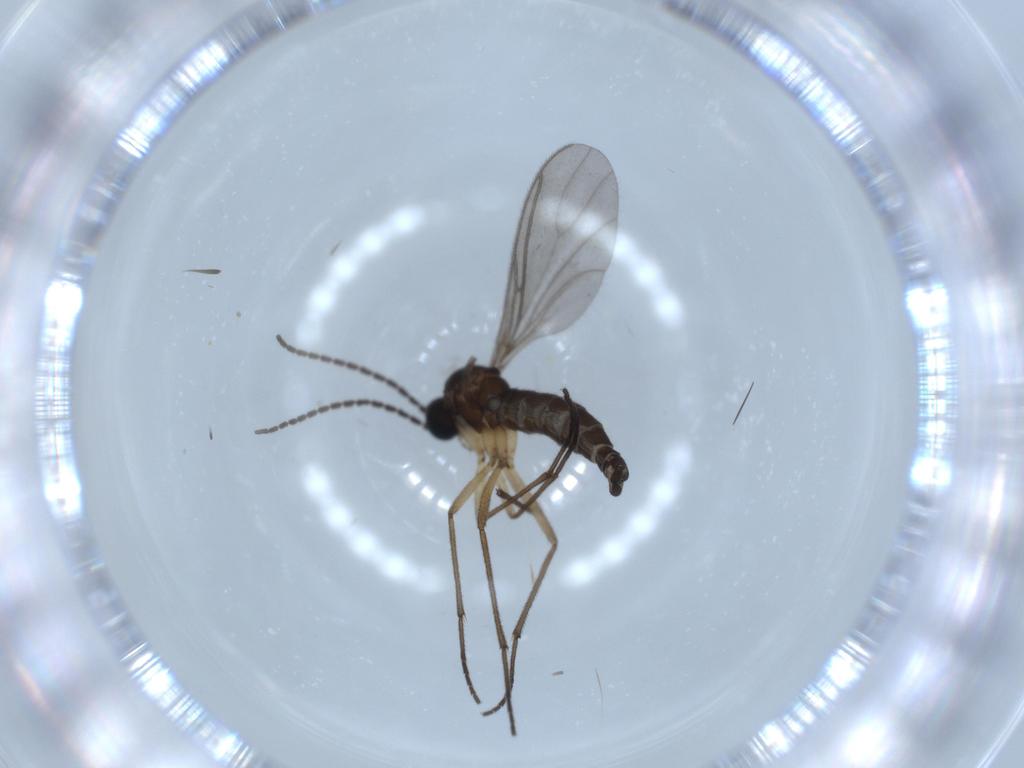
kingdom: Animalia
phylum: Arthropoda
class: Insecta
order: Diptera
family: Sciaridae
